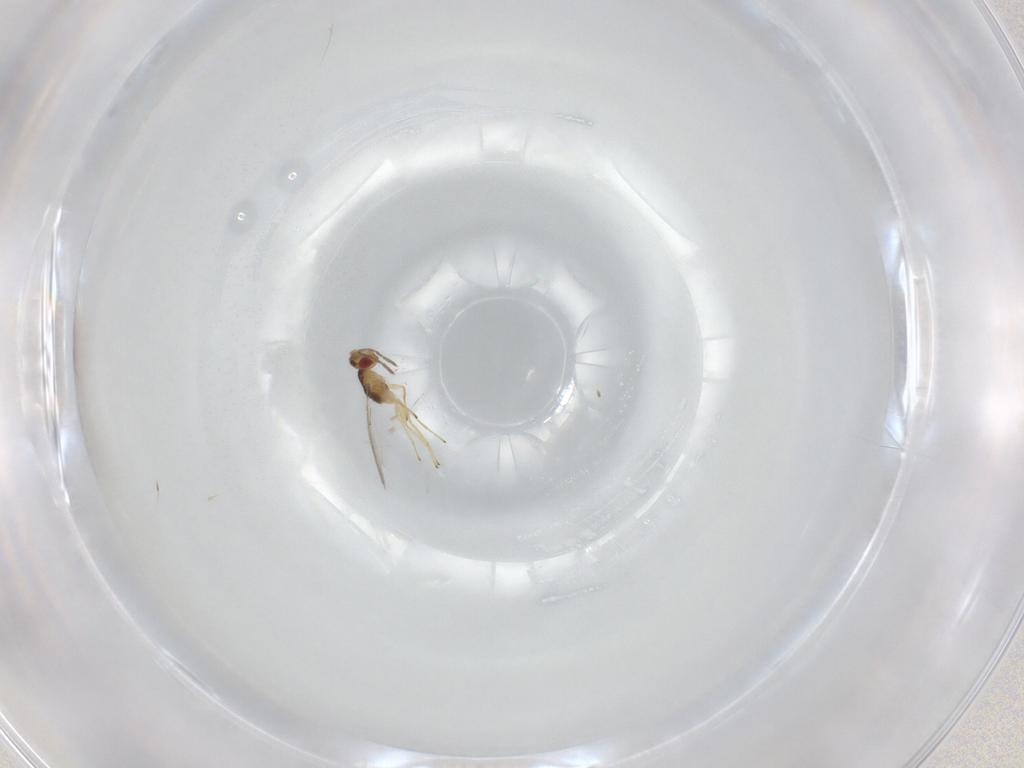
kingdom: Animalia
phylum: Arthropoda
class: Insecta
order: Hymenoptera
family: Eulophidae
